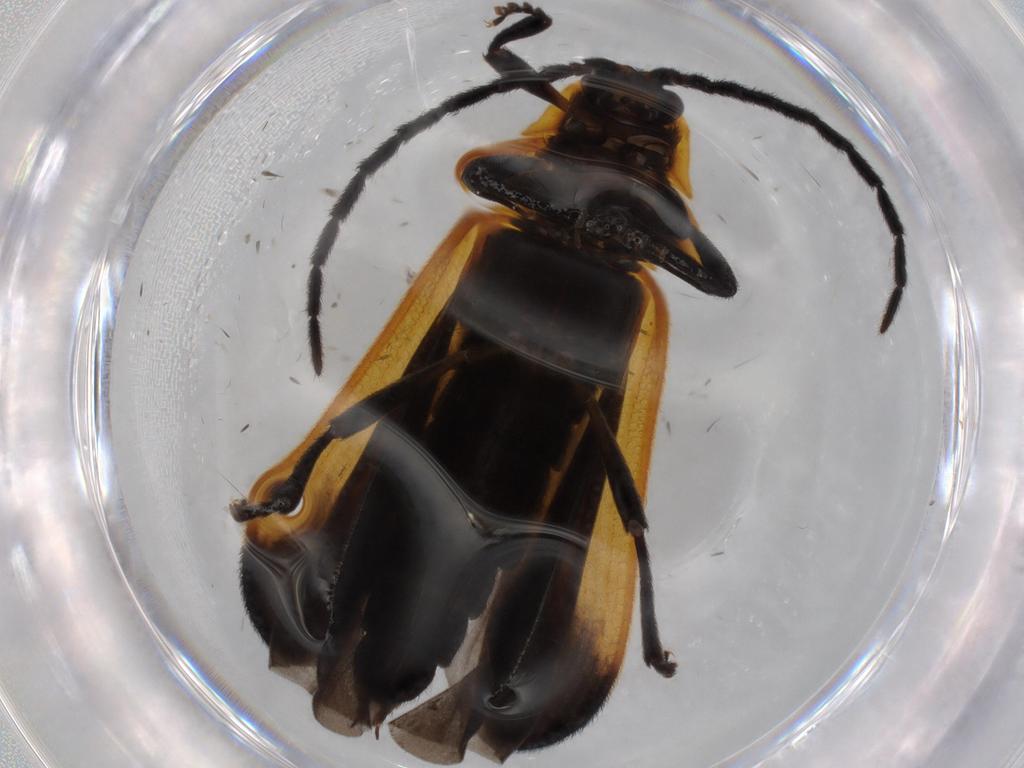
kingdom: Animalia
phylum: Arthropoda
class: Insecta
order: Coleoptera
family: Lycidae
